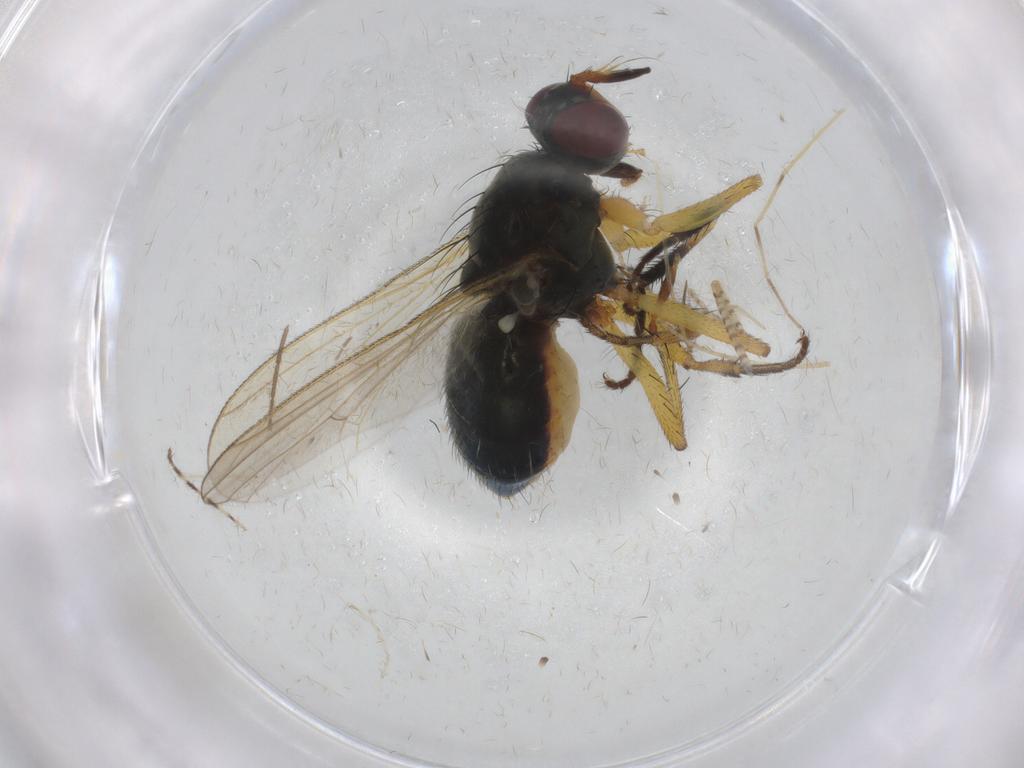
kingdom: Animalia
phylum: Arthropoda
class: Insecta
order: Diptera
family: Muscidae
